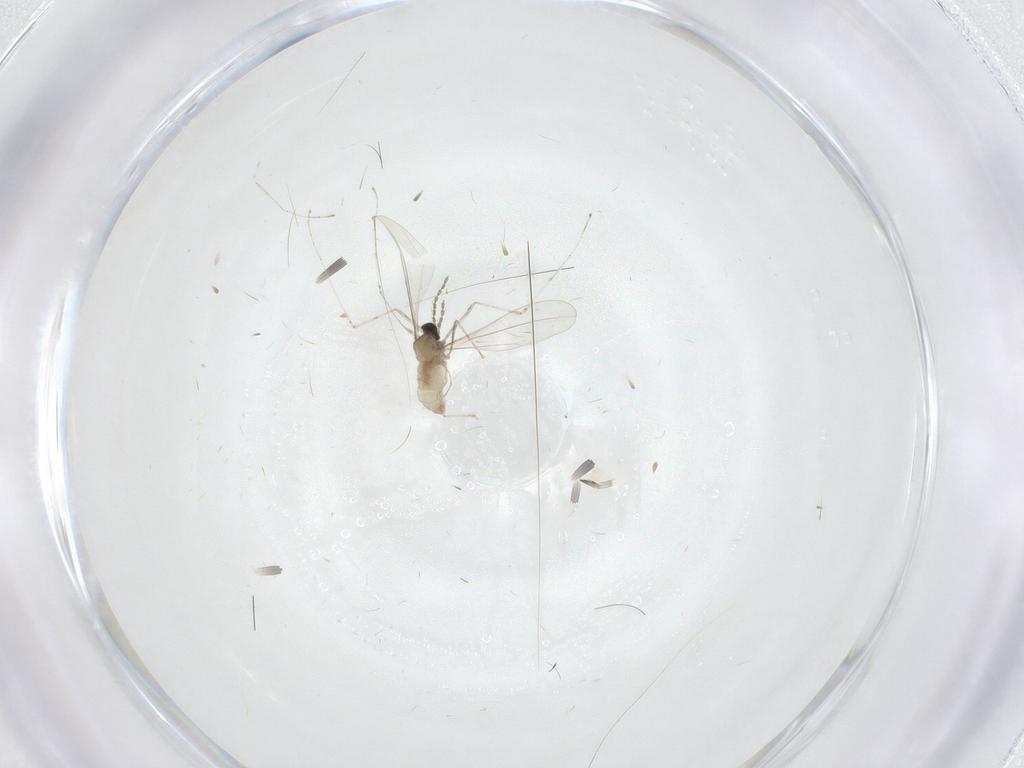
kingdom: Animalia
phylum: Arthropoda
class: Insecta
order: Diptera
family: Cecidomyiidae
